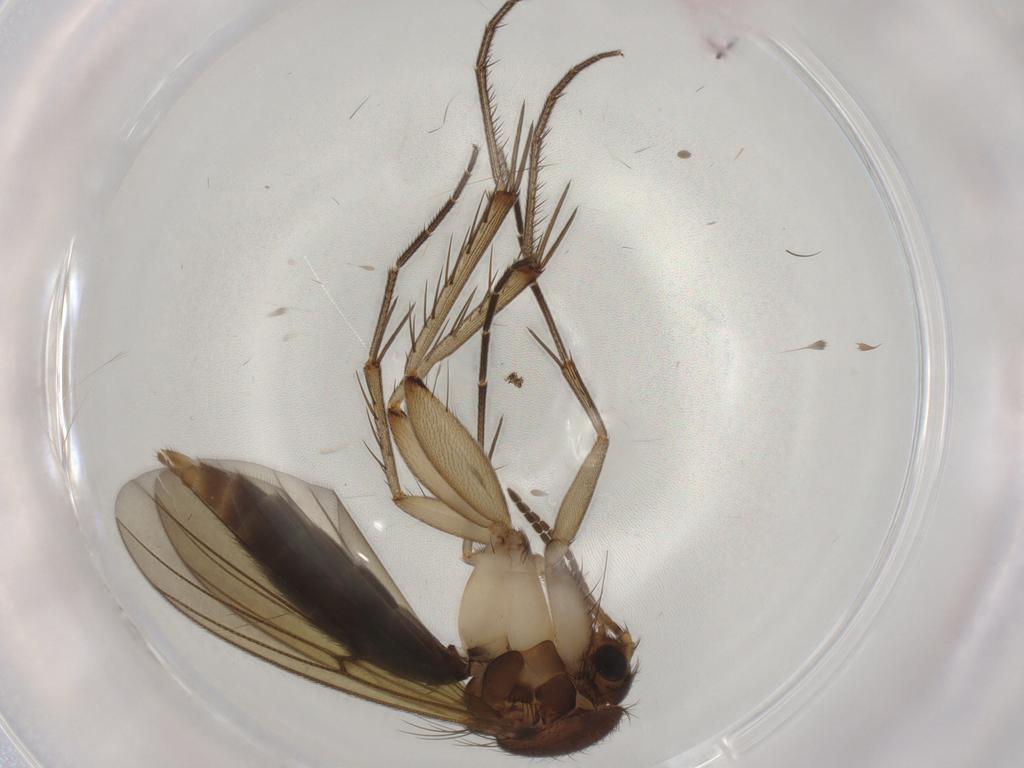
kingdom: Animalia
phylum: Arthropoda
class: Insecta
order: Diptera
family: Mycetophilidae
